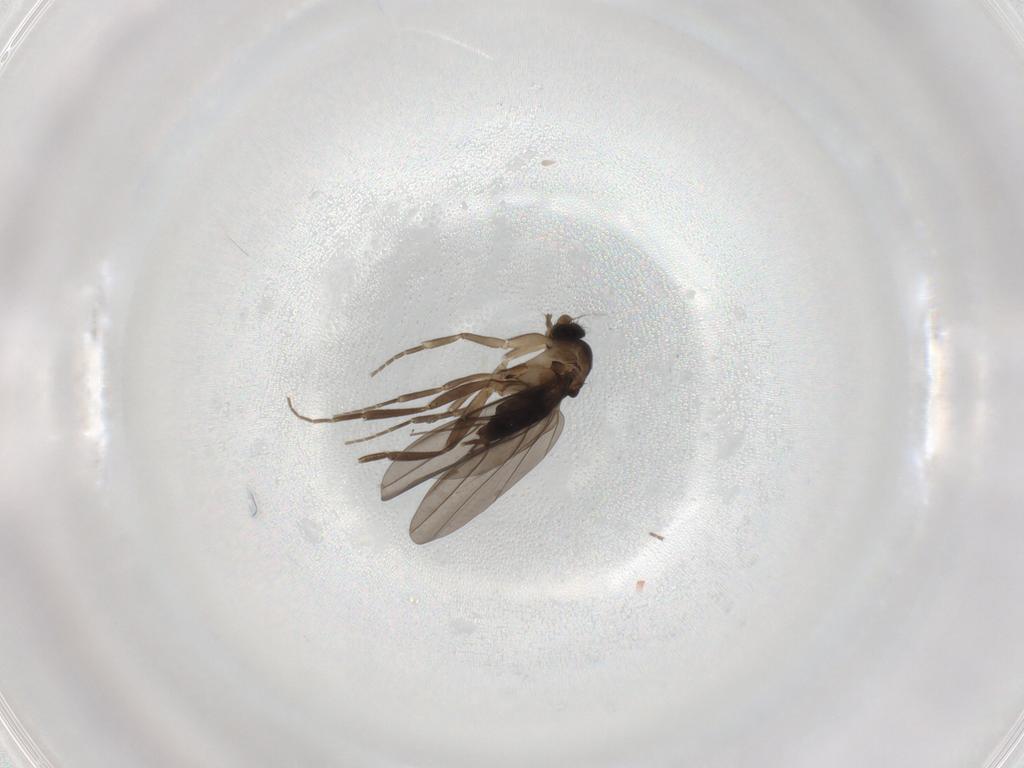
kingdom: Animalia
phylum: Arthropoda
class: Insecta
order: Diptera
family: Phoridae
